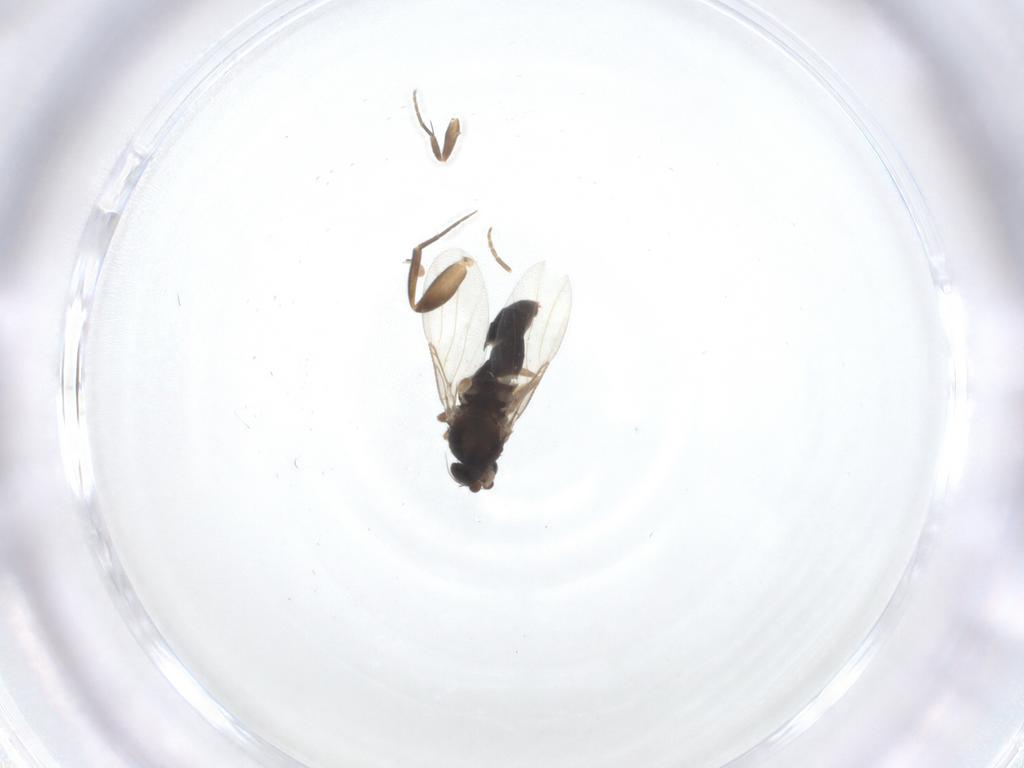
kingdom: Animalia
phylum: Arthropoda
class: Insecta
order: Diptera
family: Phoridae
